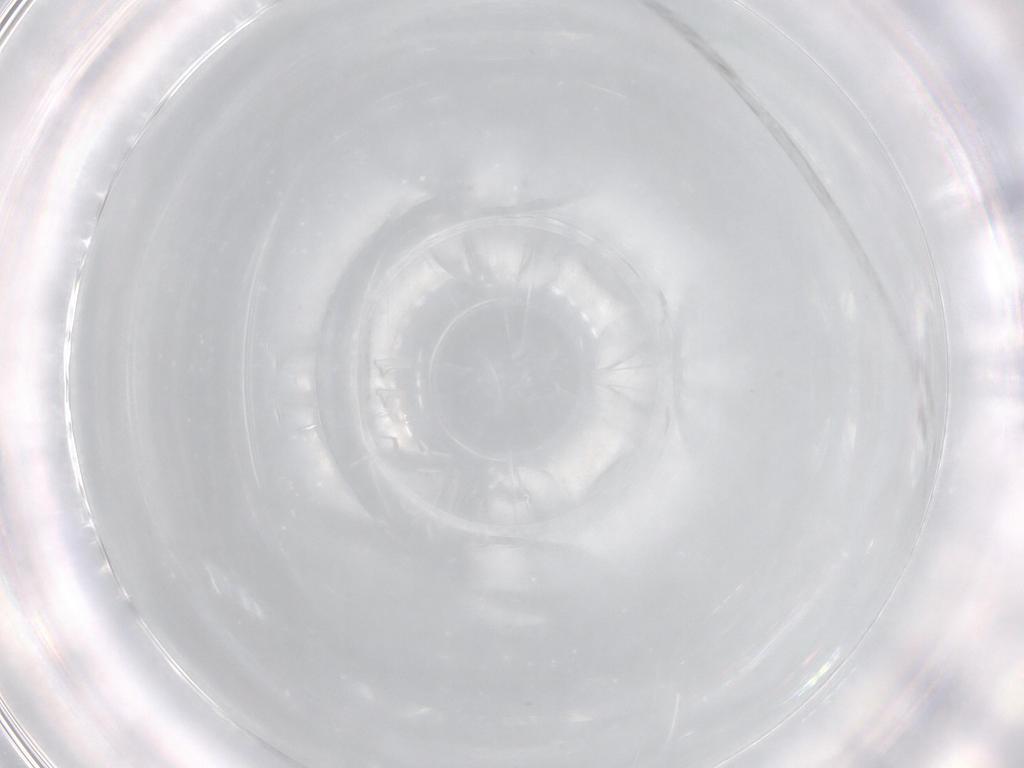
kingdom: Animalia
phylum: Arthropoda
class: Insecta
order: Thysanoptera
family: Thripidae
